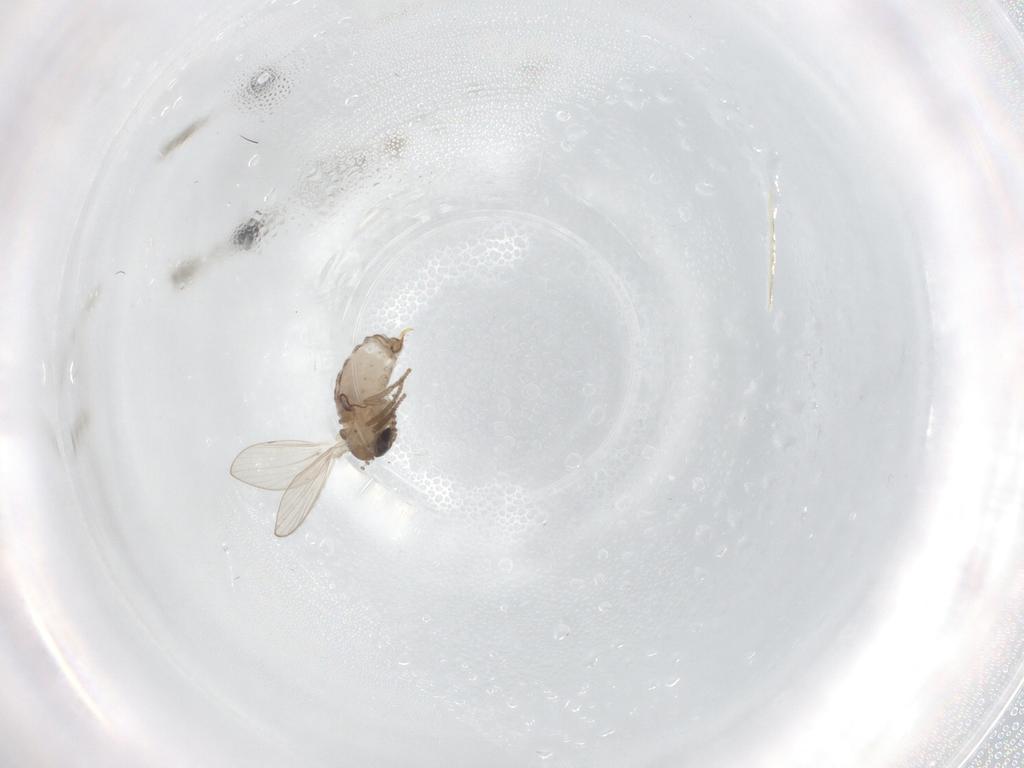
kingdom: Animalia
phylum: Arthropoda
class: Insecta
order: Diptera
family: Psychodidae
